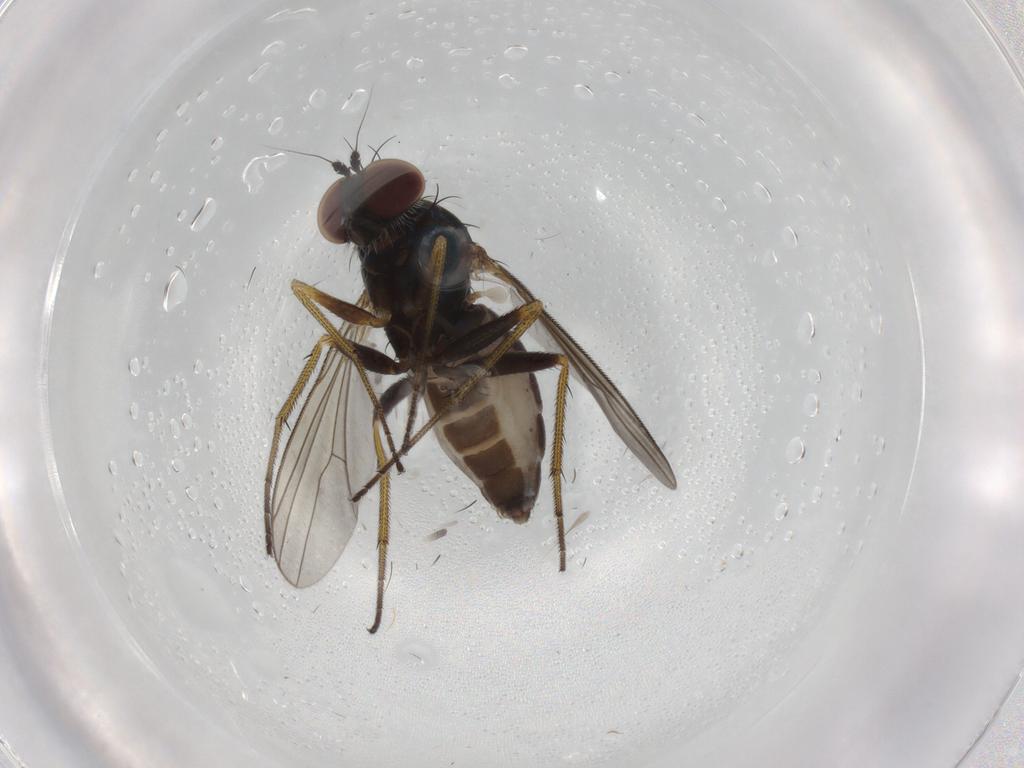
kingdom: Animalia
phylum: Arthropoda
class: Insecta
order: Diptera
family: Dolichopodidae
